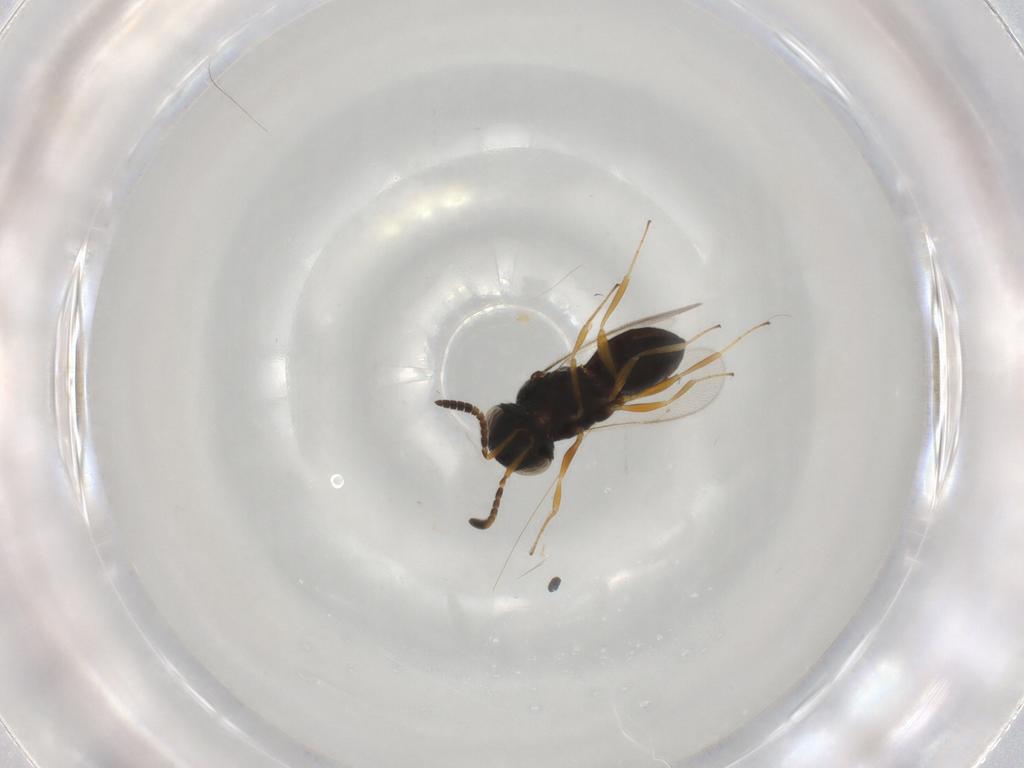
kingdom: Animalia
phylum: Arthropoda
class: Insecta
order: Hymenoptera
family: Scelionidae
